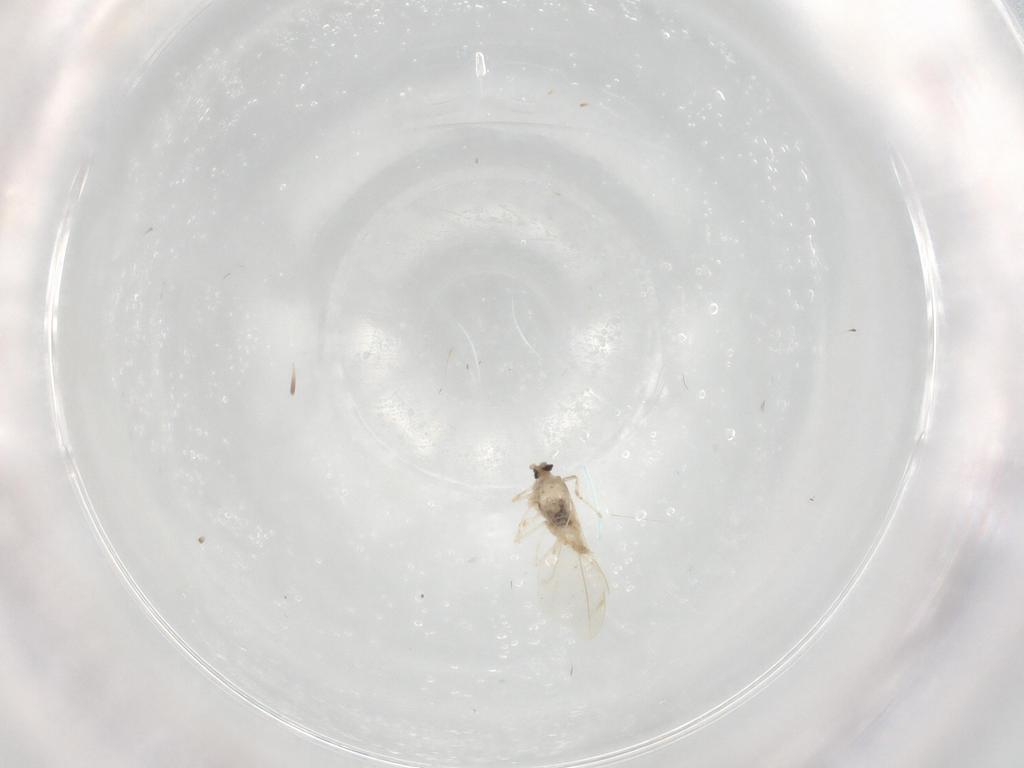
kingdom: Animalia
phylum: Arthropoda
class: Insecta
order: Diptera
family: Cecidomyiidae
